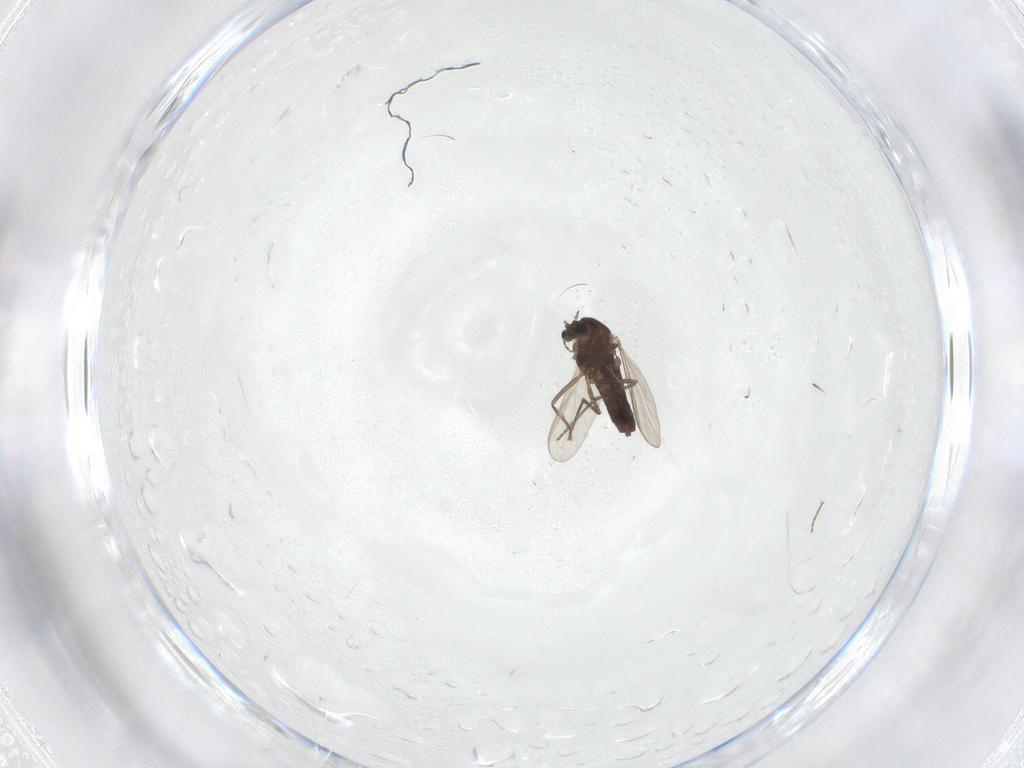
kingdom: Animalia
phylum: Arthropoda
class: Insecta
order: Diptera
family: Chironomidae
